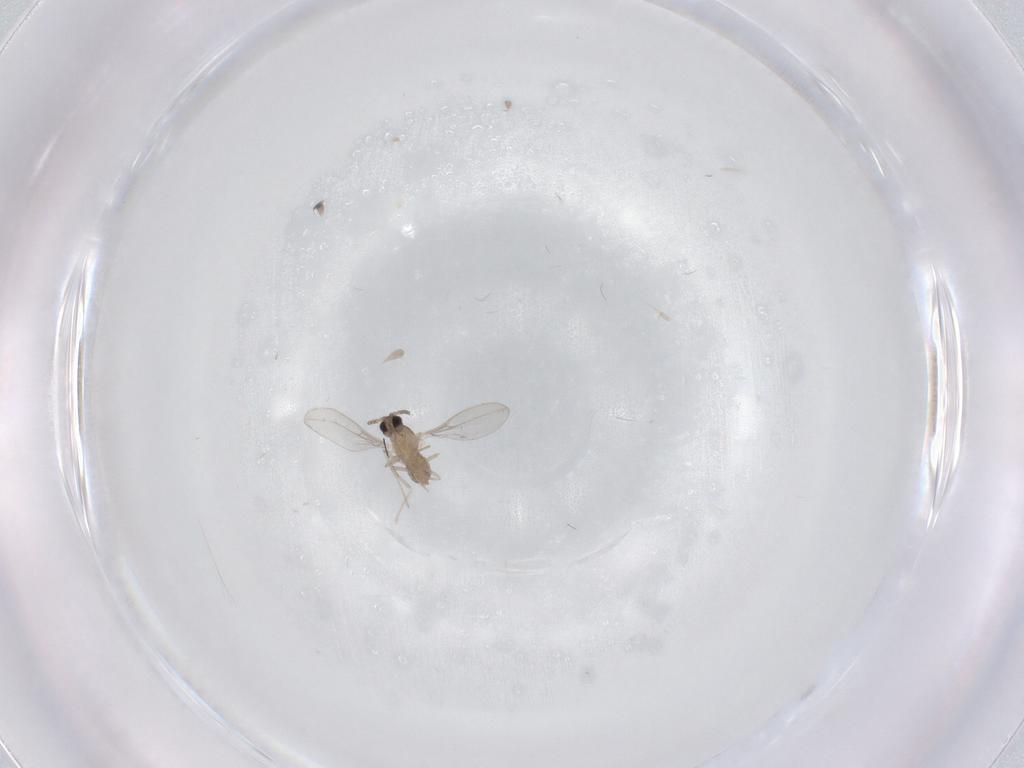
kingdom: Animalia
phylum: Arthropoda
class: Insecta
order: Diptera
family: Cecidomyiidae
